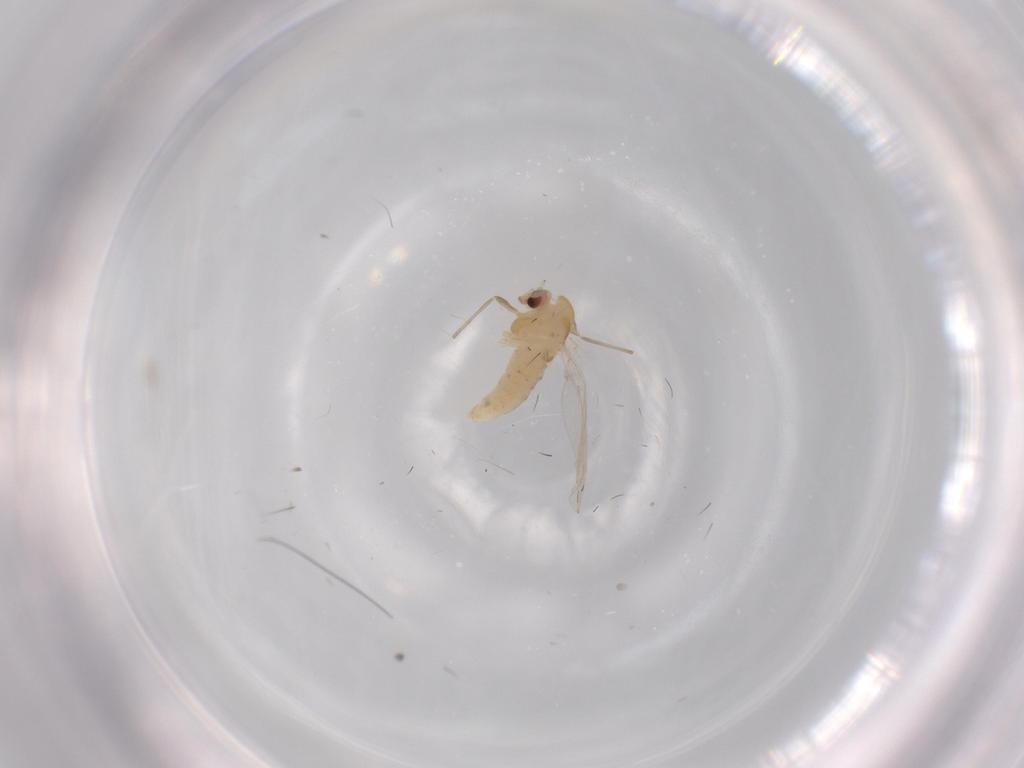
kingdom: Animalia
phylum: Arthropoda
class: Insecta
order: Diptera
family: Chironomidae
